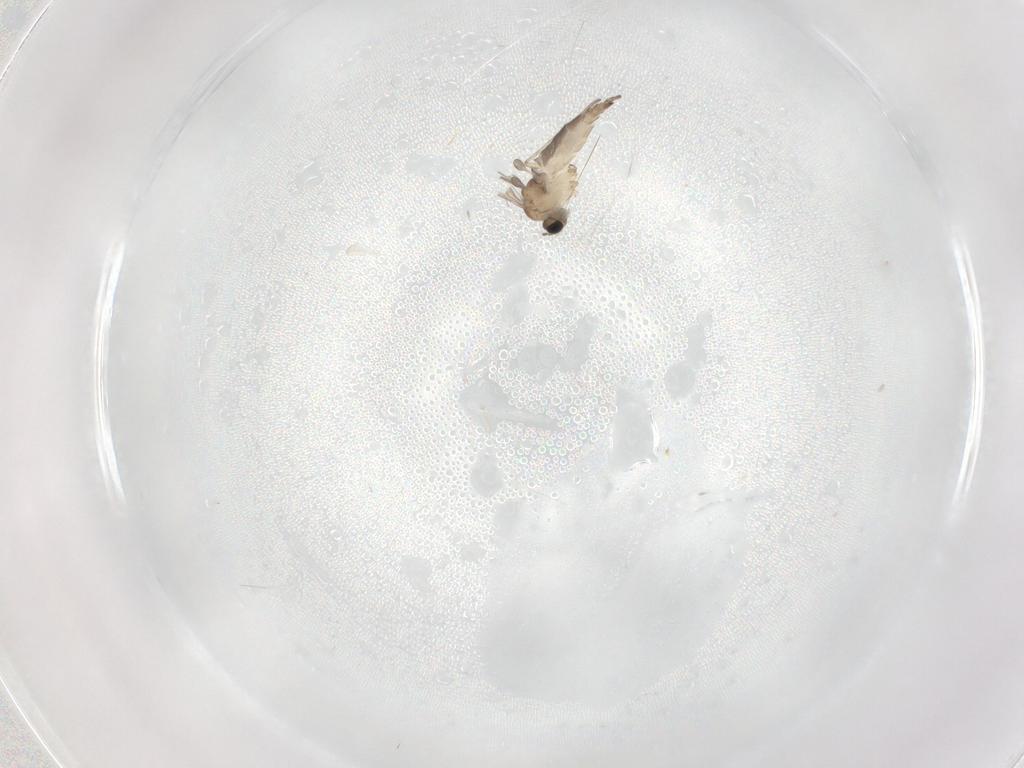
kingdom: Animalia
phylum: Arthropoda
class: Insecta
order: Diptera
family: Sciaridae
